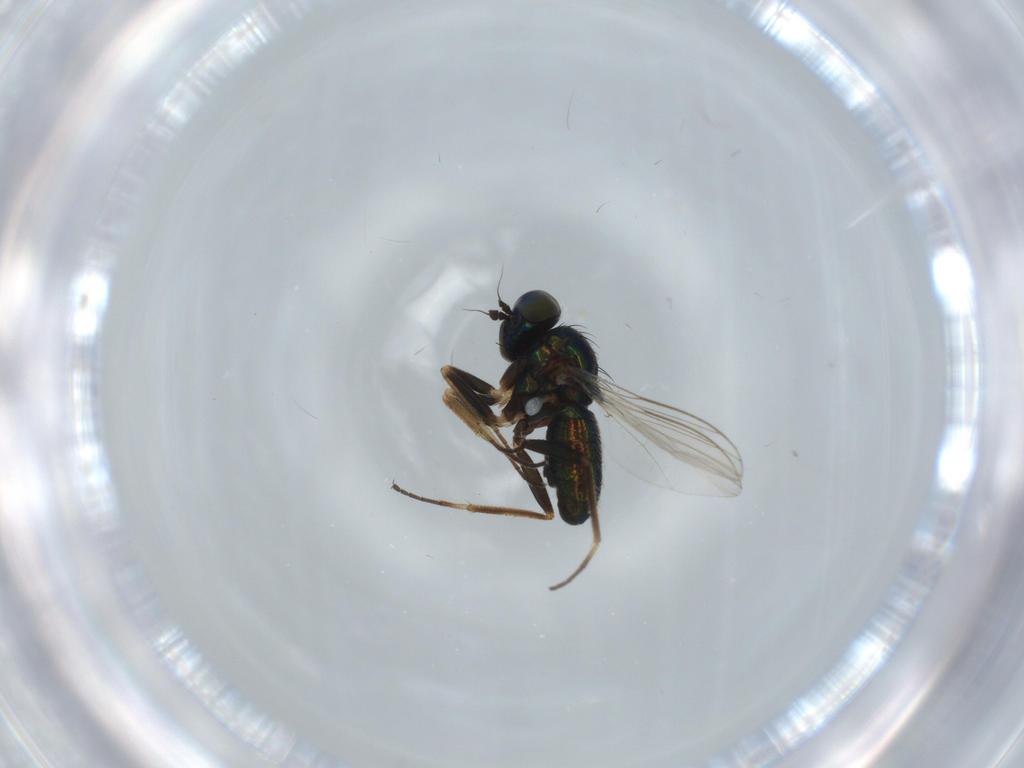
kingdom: Animalia
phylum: Arthropoda
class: Insecta
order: Diptera
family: Chironomidae
